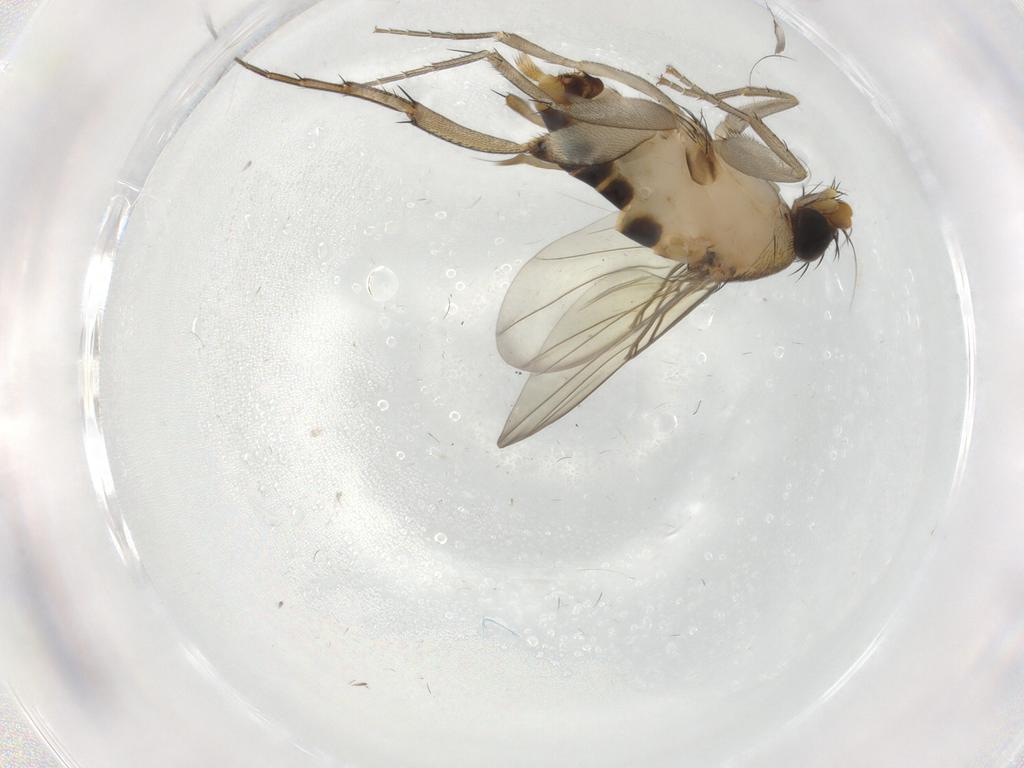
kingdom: Animalia
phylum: Arthropoda
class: Insecta
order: Diptera
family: Phoridae
